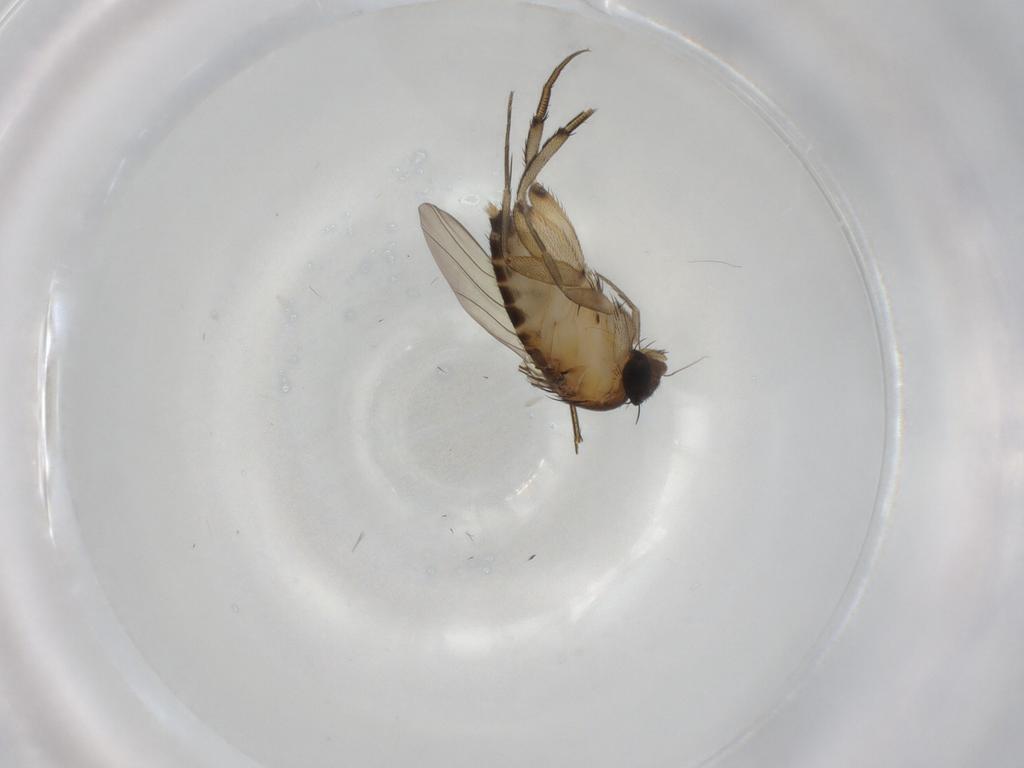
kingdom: Animalia
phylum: Arthropoda
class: Insecta
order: Diptera
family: Phoridae
